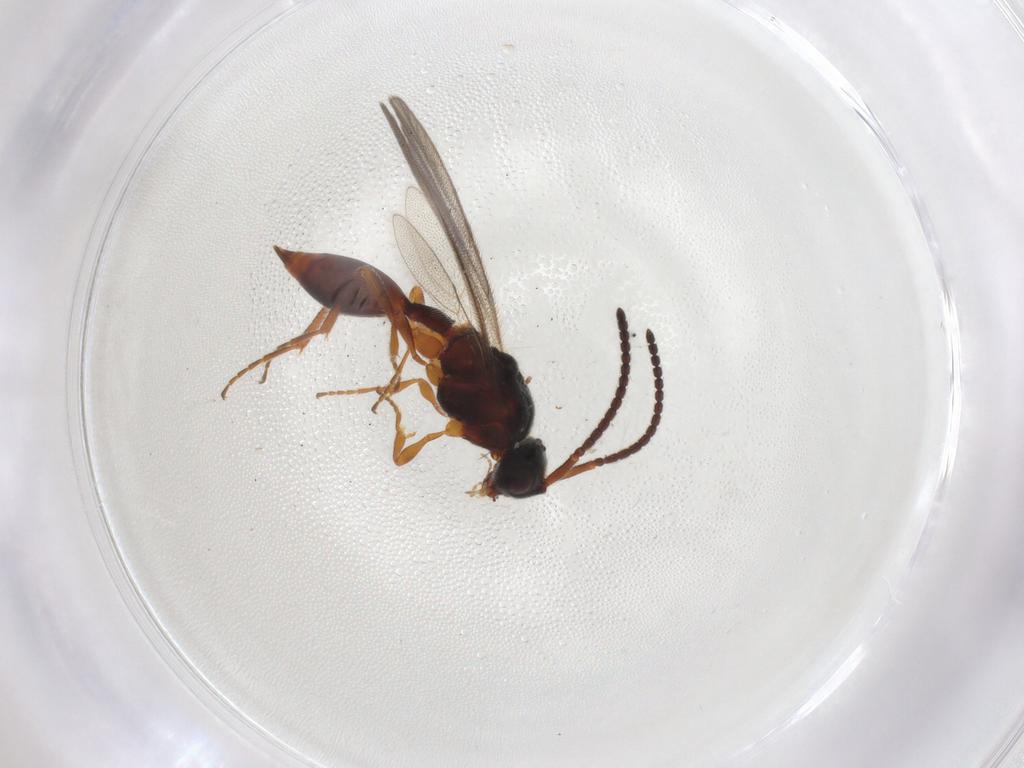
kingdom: Animalia
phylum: Arthropoda
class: Insecta
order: Hymenoptera
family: Diapriidae
